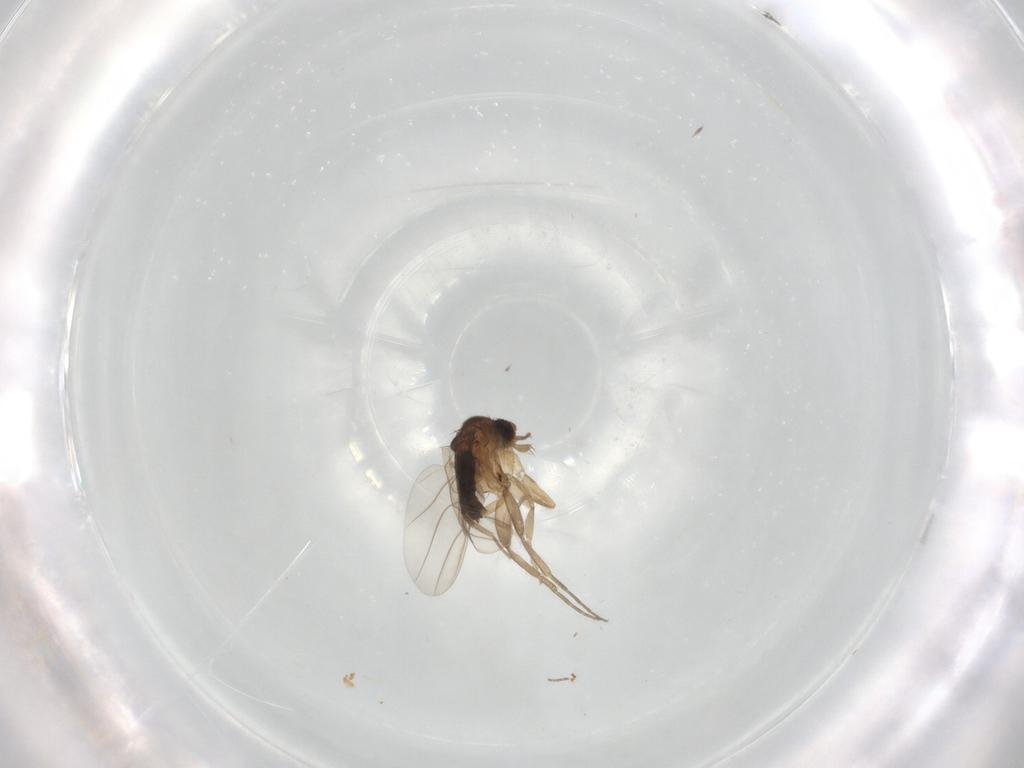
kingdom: Animalia
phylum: Arthropoda
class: Insecta
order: Diptera
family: Phoridae
